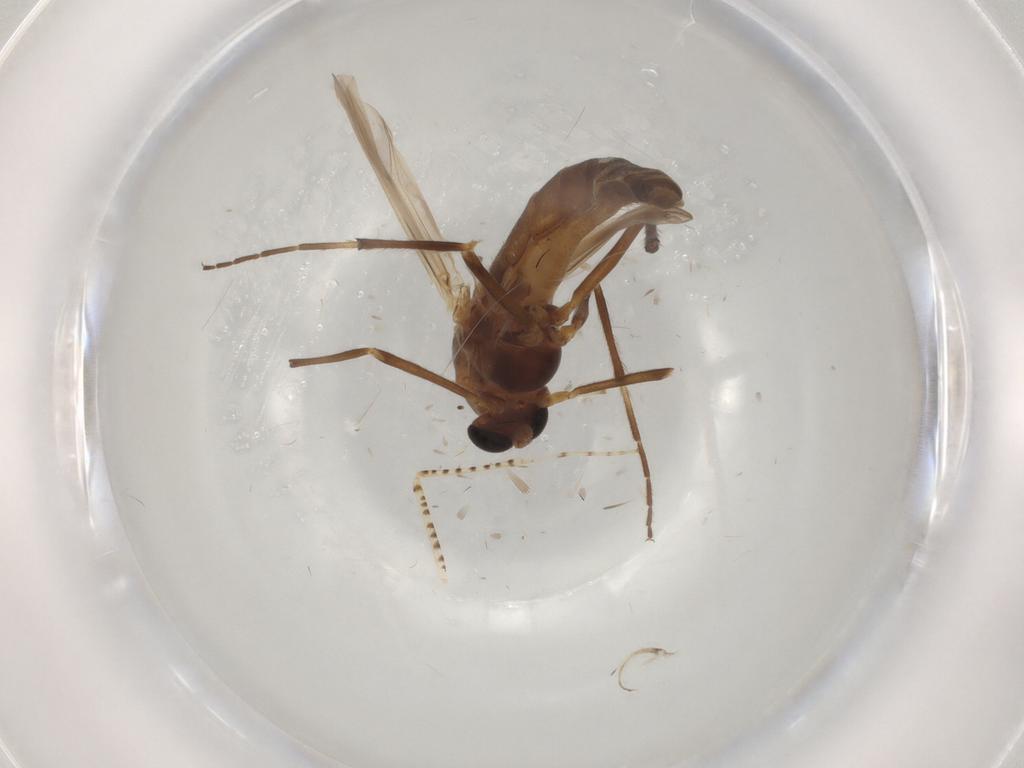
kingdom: Animalia
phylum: Arthropoda
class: Insecta
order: Diptera
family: Chironomidae
